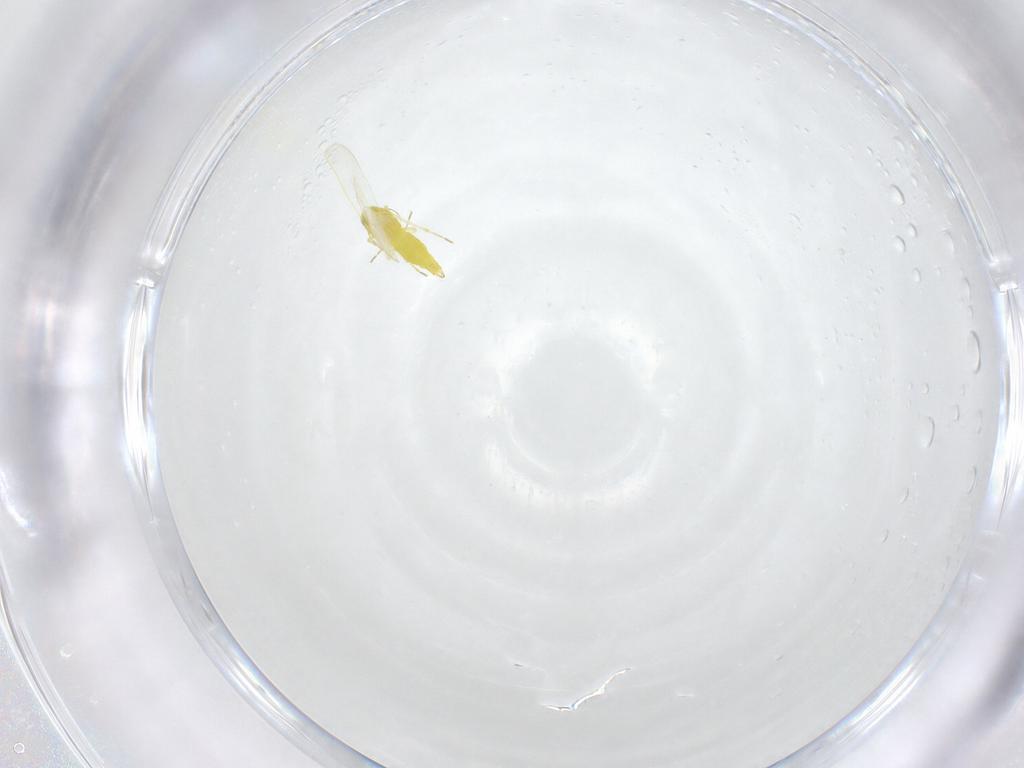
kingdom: Animalia
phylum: Arthropoda
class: Insecta
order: Hemiptera
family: Aleyrodidae
